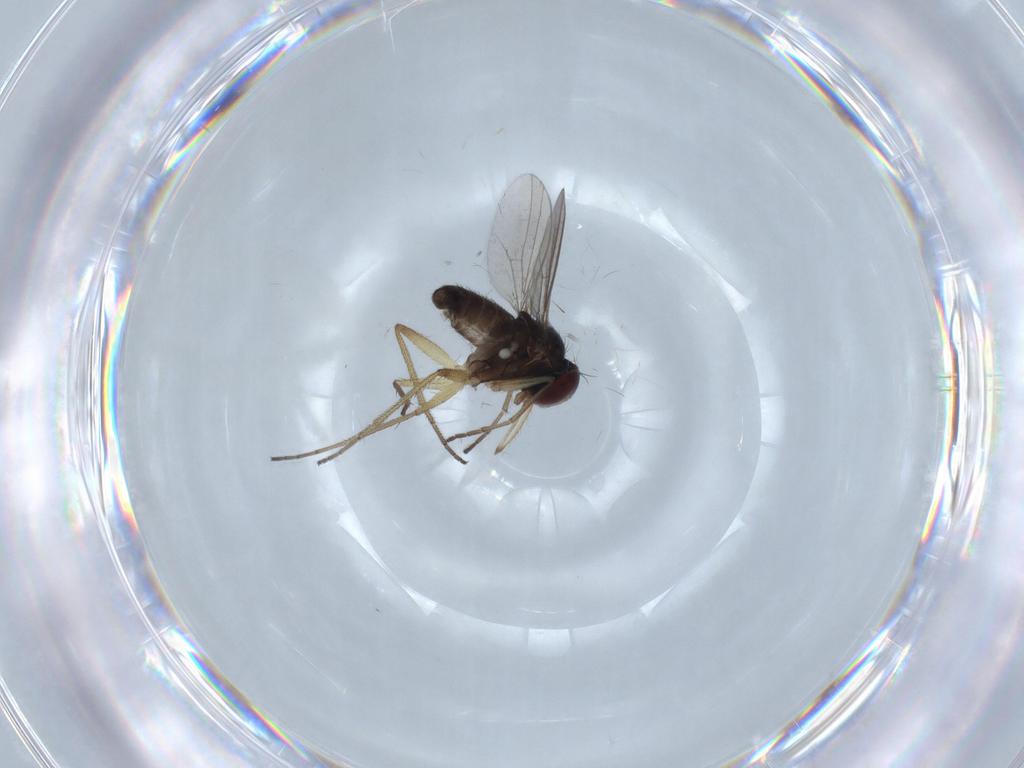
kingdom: Animalia
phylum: Arthropoda
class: Insecta
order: Diptera
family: Dolichopodidae
